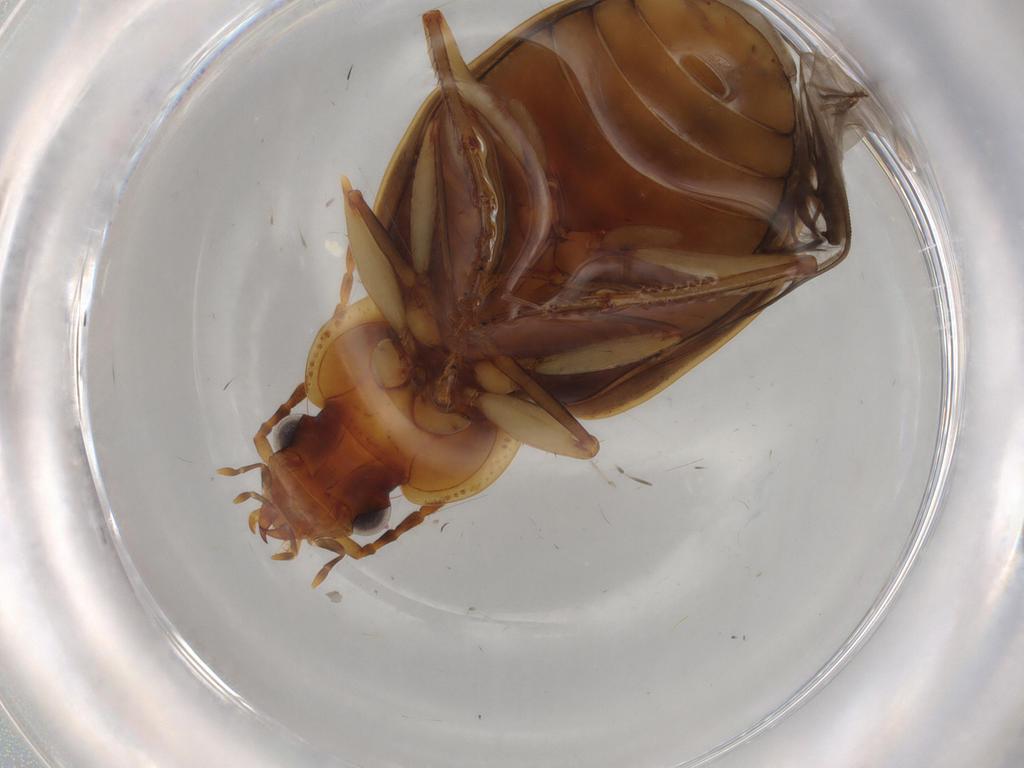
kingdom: Animalia
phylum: Arthropoda
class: Insecta
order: Coleoptera
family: Carabidae
